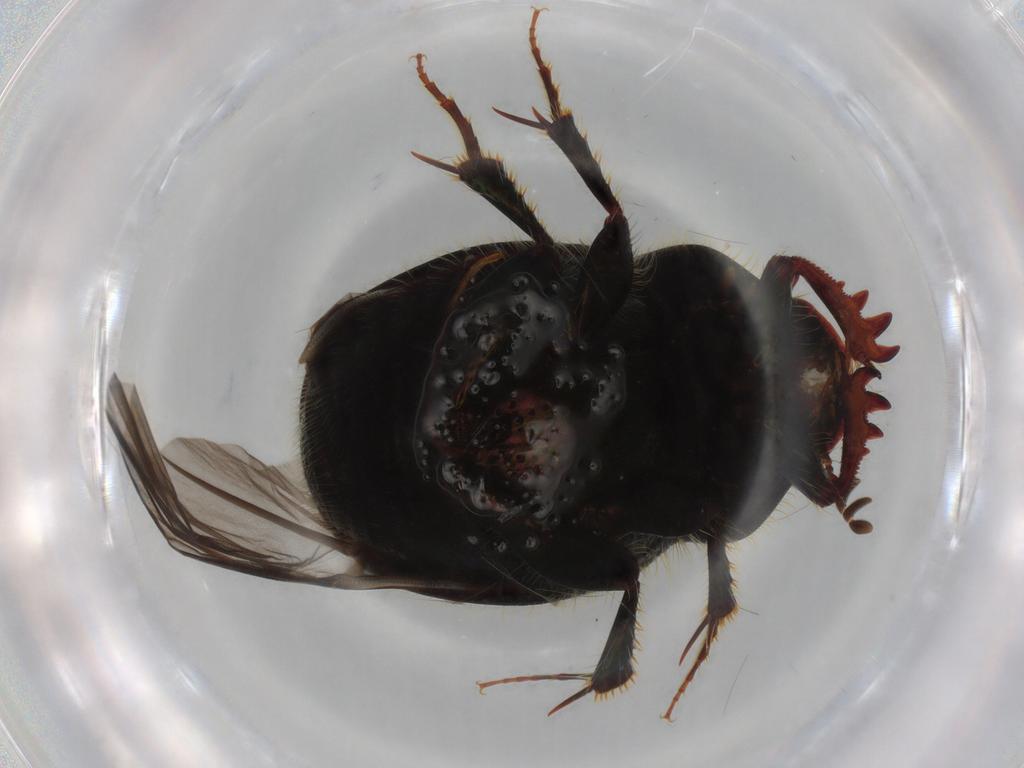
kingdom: Animalia
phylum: Arthropoda
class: Insecta
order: Coleoptera
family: Scarabaeidae
